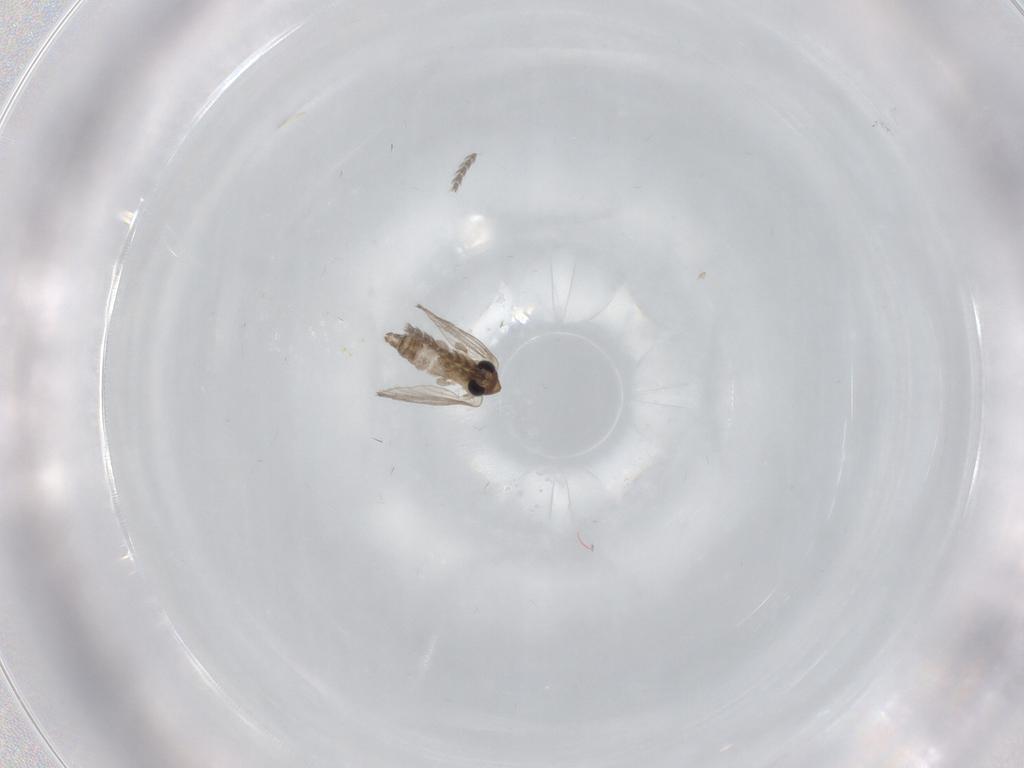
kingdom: Animalia
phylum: Arthropoda
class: Insecta
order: Diptera
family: Psychodidae
